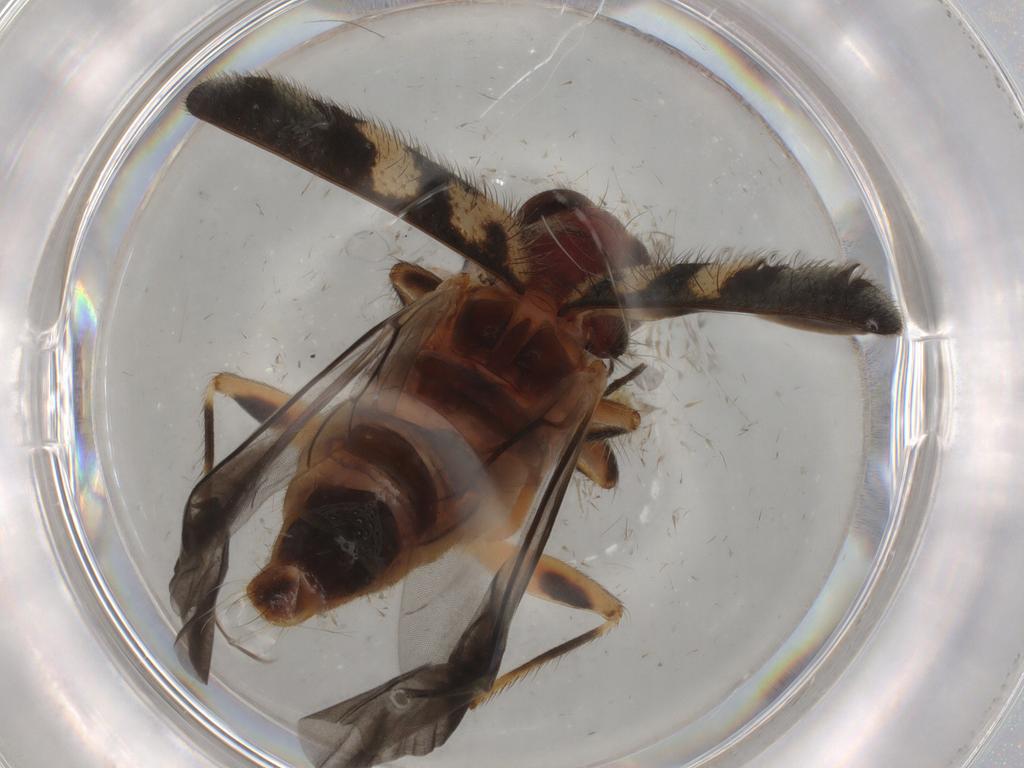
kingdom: Animalia
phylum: Arthropoda
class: Insecta
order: Coleoptera
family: Cleridae
